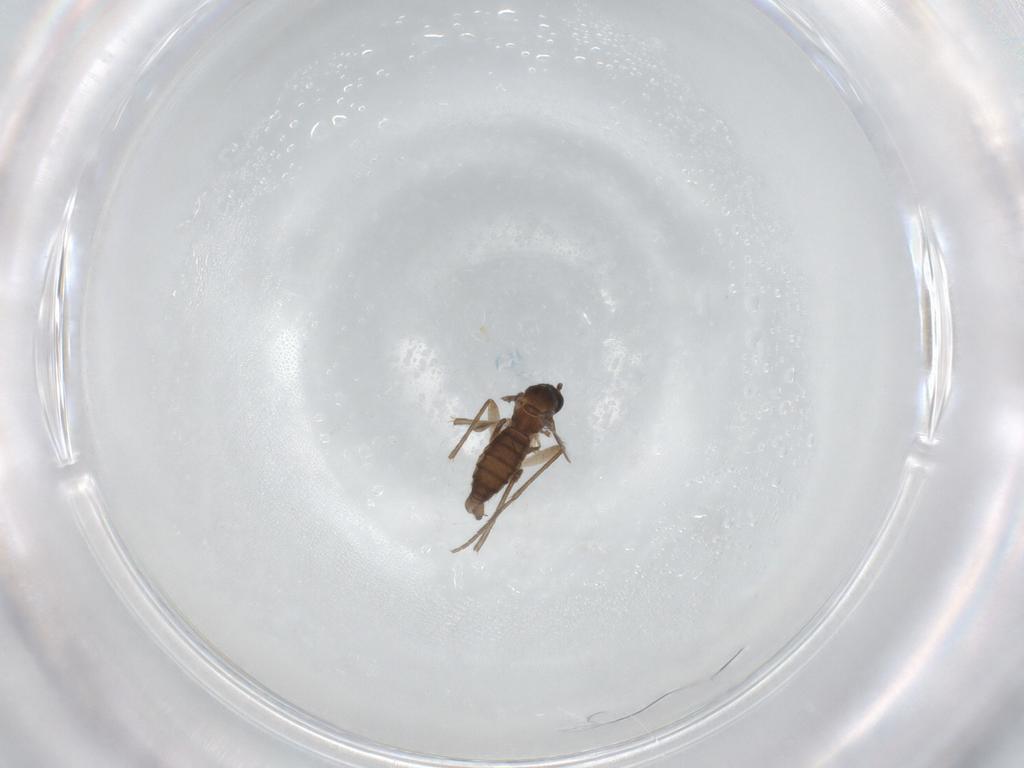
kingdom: Animalia
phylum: Arthropoda
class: Insecta
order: Diptera
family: Sciaridae
